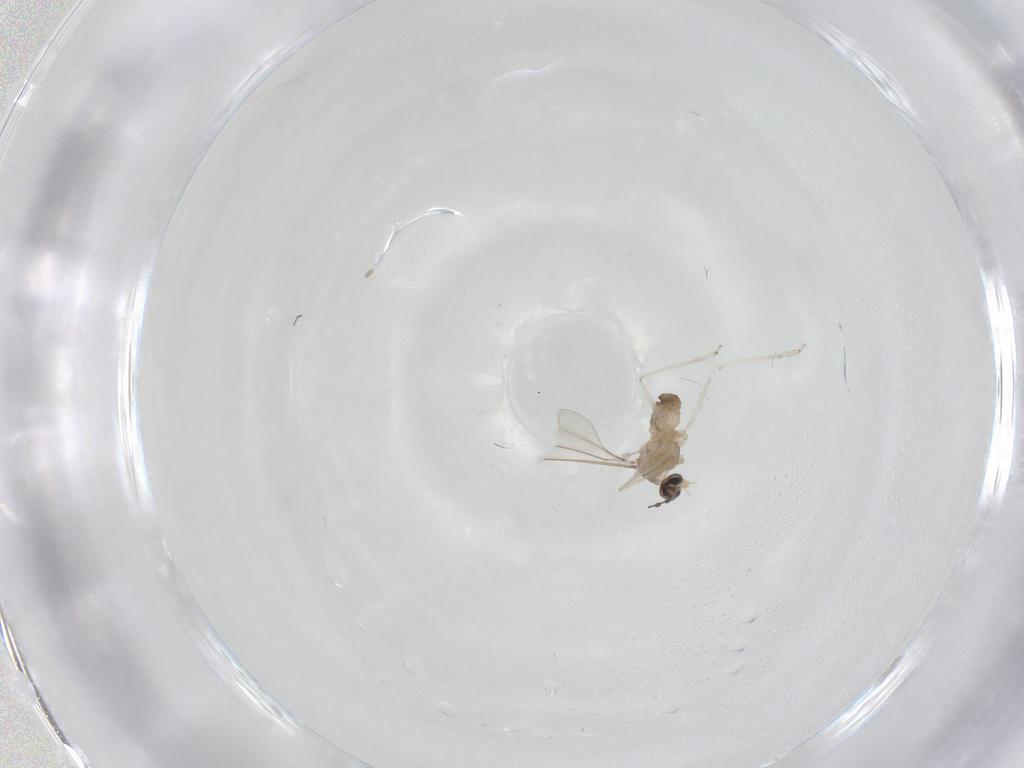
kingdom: Animalia
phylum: Arthropoda
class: Insecta
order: Diptera
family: Cecidomyiidae
